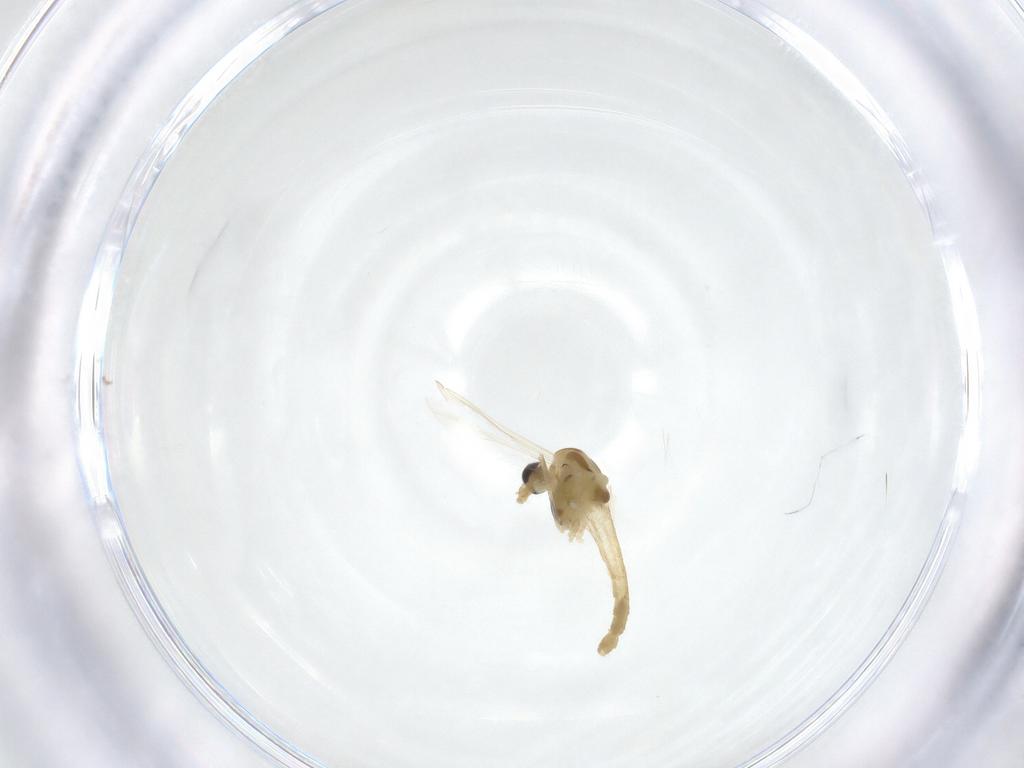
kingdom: Animalia
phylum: Arthropoda
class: Insecta
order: Diptera
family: Chironomidae
